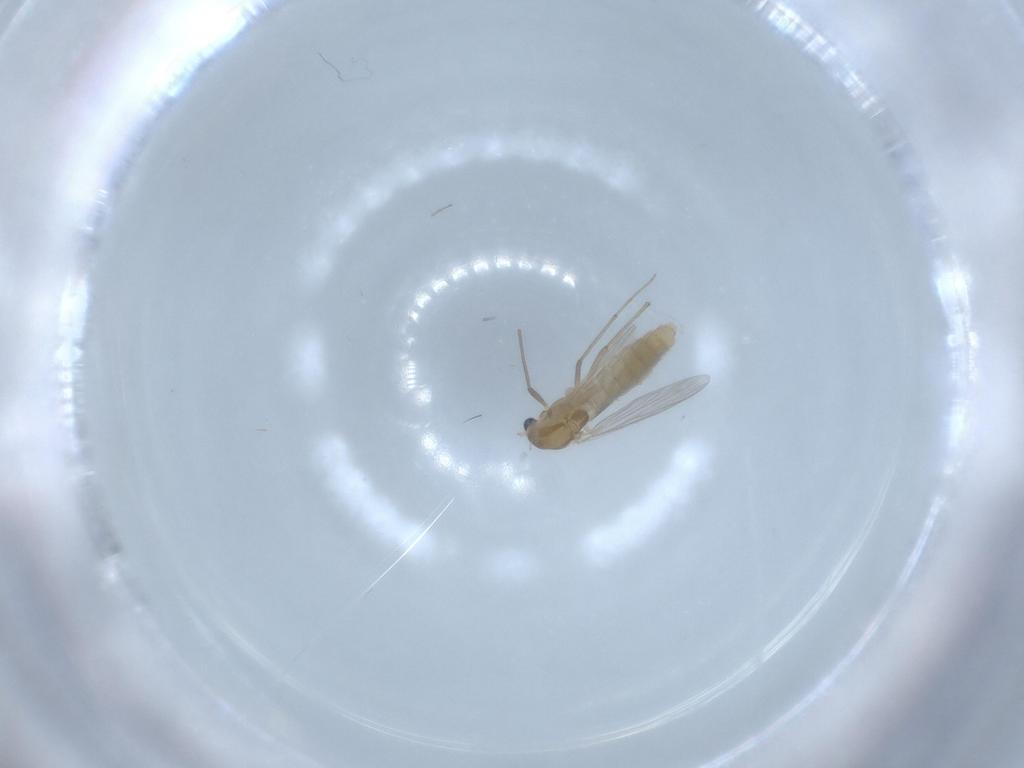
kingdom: Animalia
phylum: Arthropoda
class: Insecta
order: Diptera
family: Chironomidae
